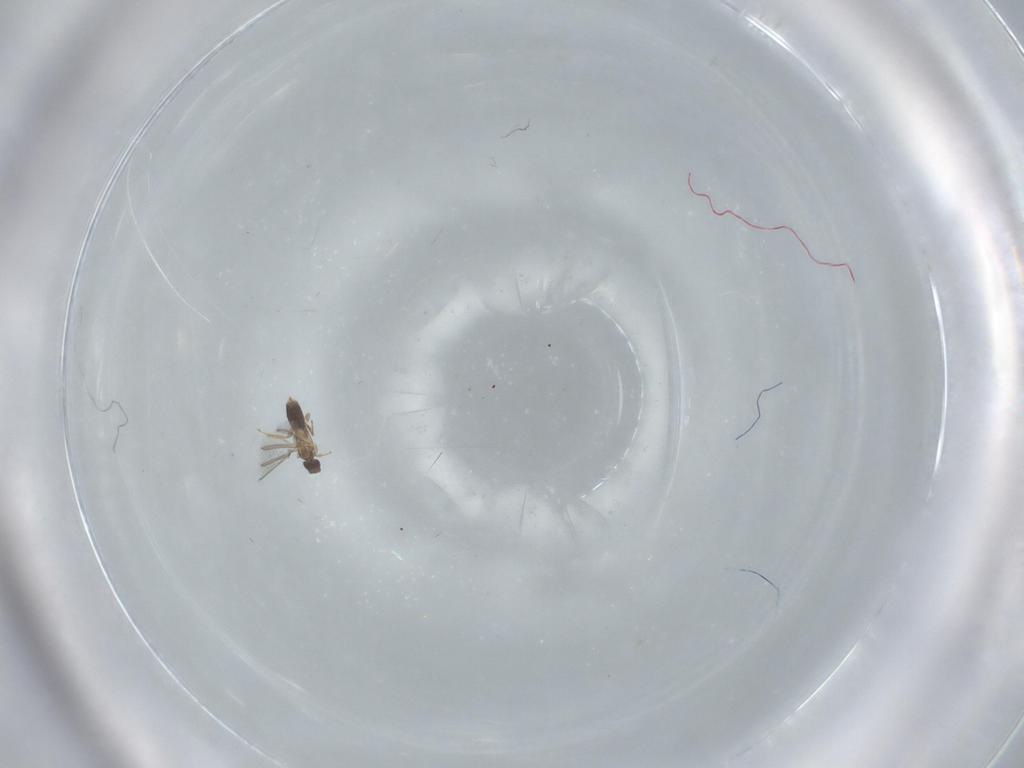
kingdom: Animalia
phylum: Arthropoda
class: Insecta
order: Hymenoptera
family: Mymaridae
